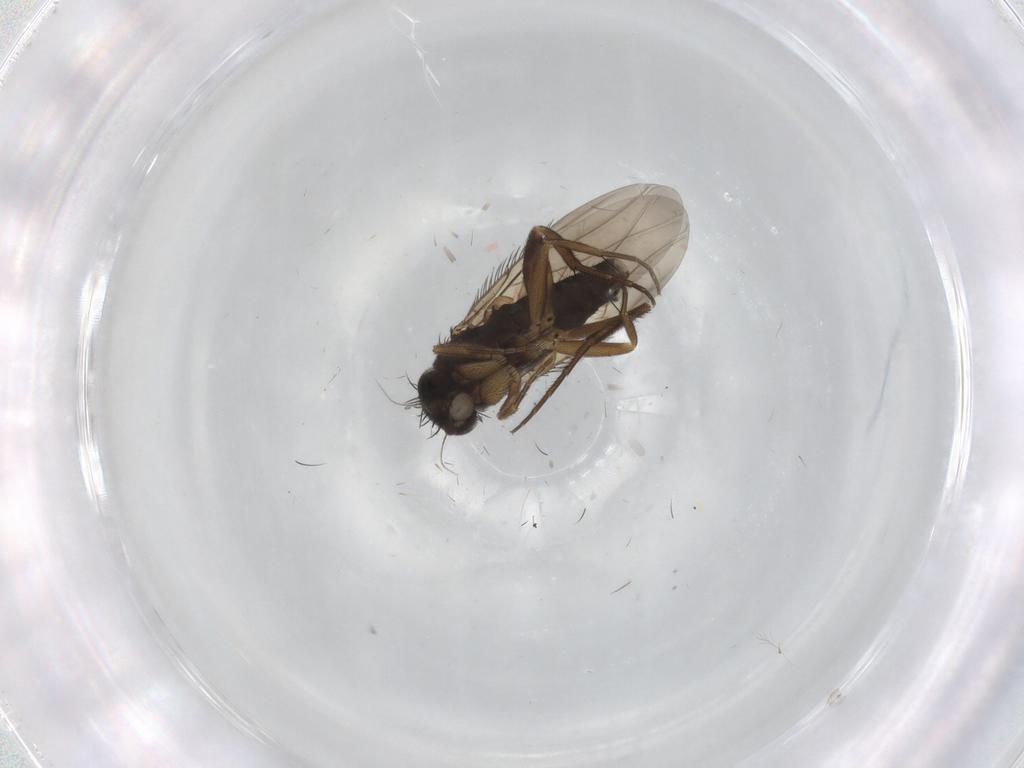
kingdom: Animalia
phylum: Arthropoda
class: Insecta
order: Diptera
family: Phoridae
